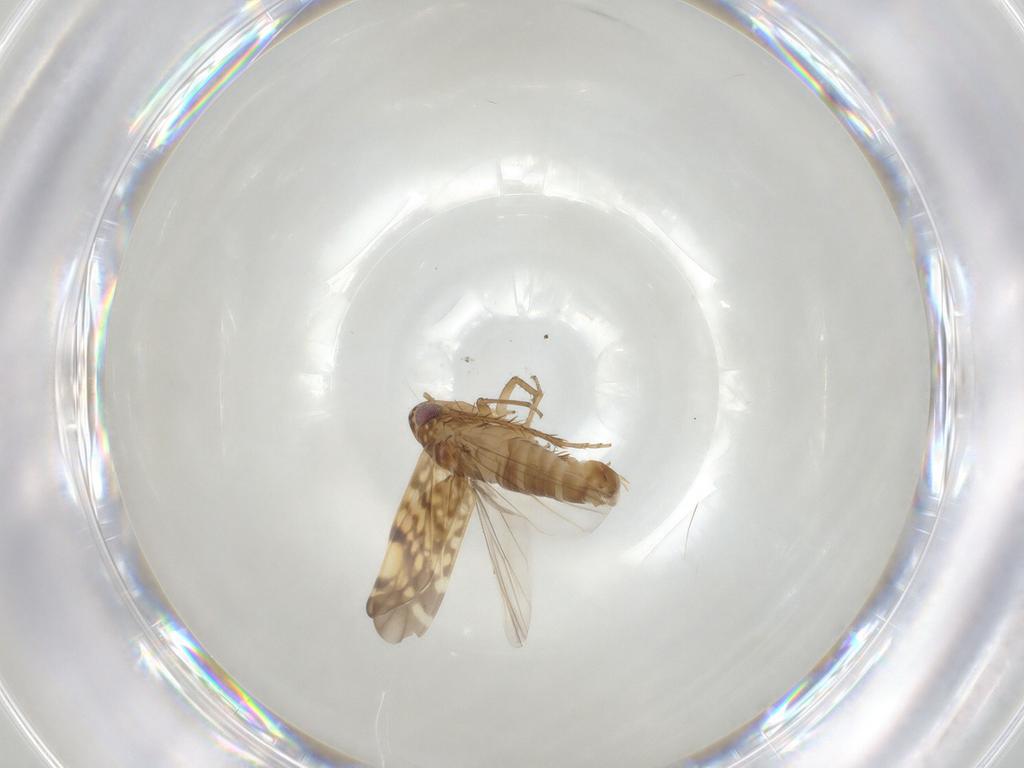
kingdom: Animalia
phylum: Arthropoda
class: Insecta
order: Hemiptera
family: Cicadellidae
